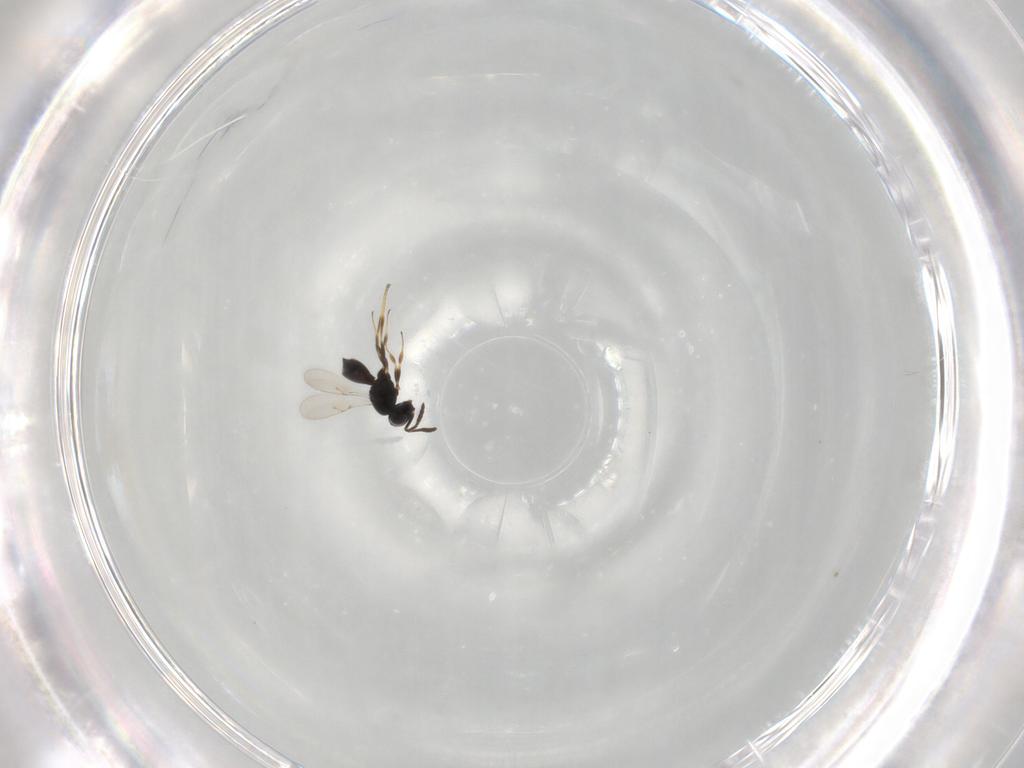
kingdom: Animalia
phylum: Arthropoda
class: Insecta
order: Hymenoptera
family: Scelionidae
